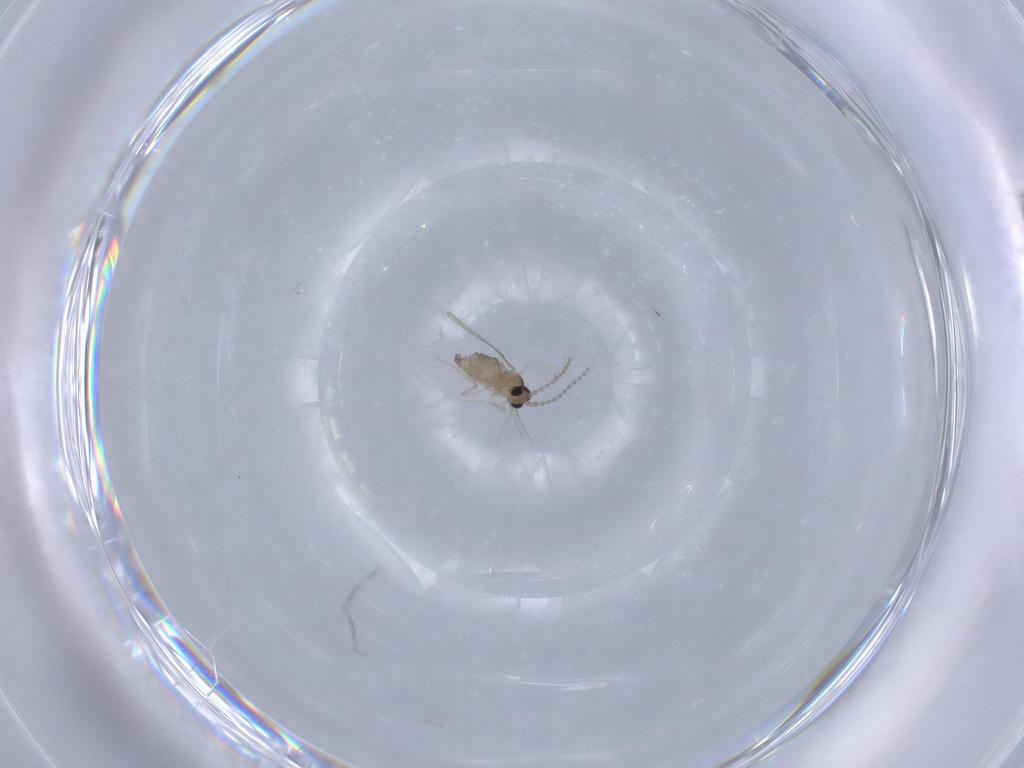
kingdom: Animalia
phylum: Arthropoda
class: Insecta
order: Diptera
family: Cecidomyiidae
